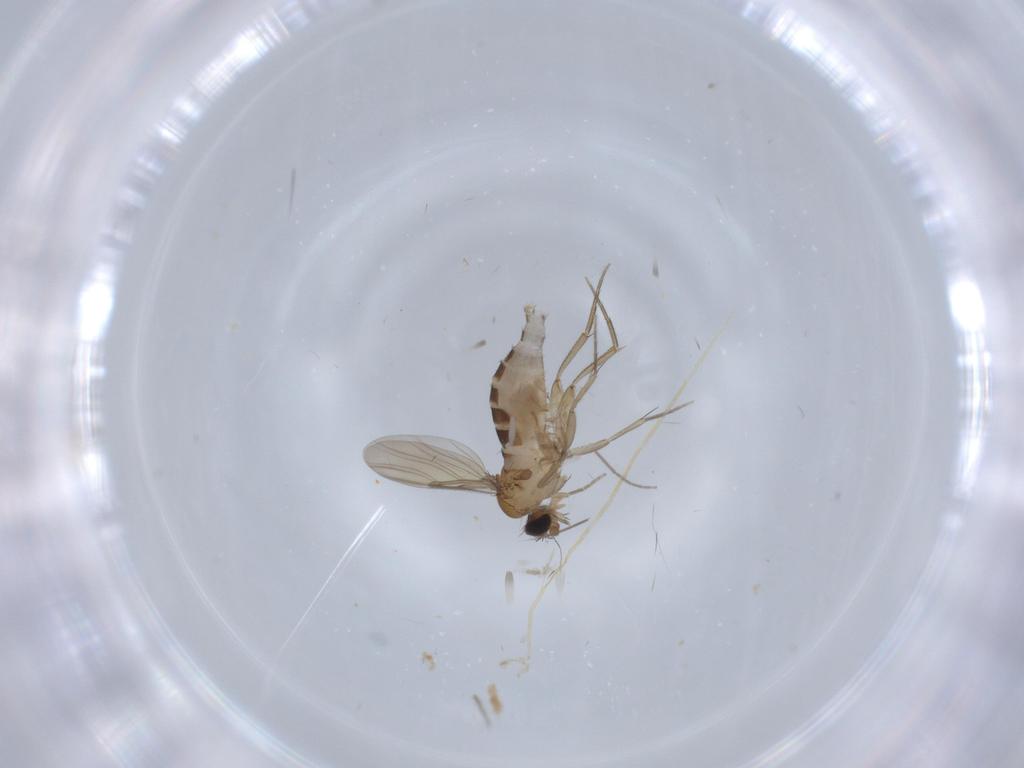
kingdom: Animalia
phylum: Arthropoda
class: Insecta
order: Diptera
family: Phoridae
